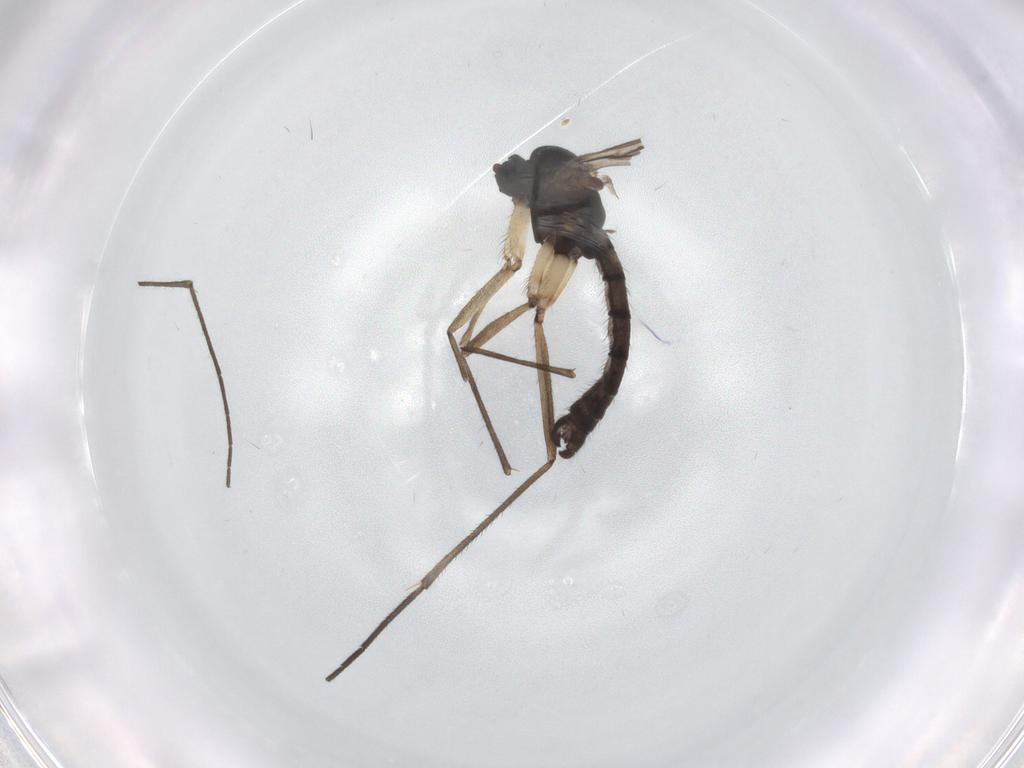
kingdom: Animalia
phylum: Arthropoda
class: Insecta
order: Diptera
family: Sciaridae
